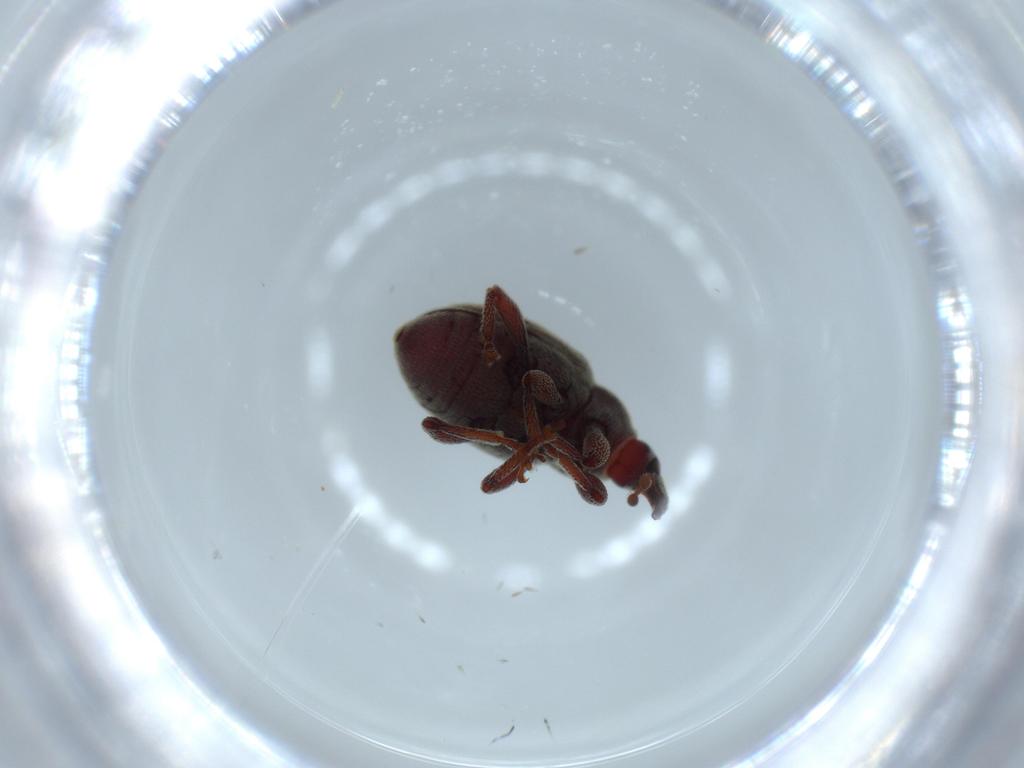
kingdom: Animalia
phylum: Arthropoda
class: Insecta
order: Coleoptera
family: Curculionidae
